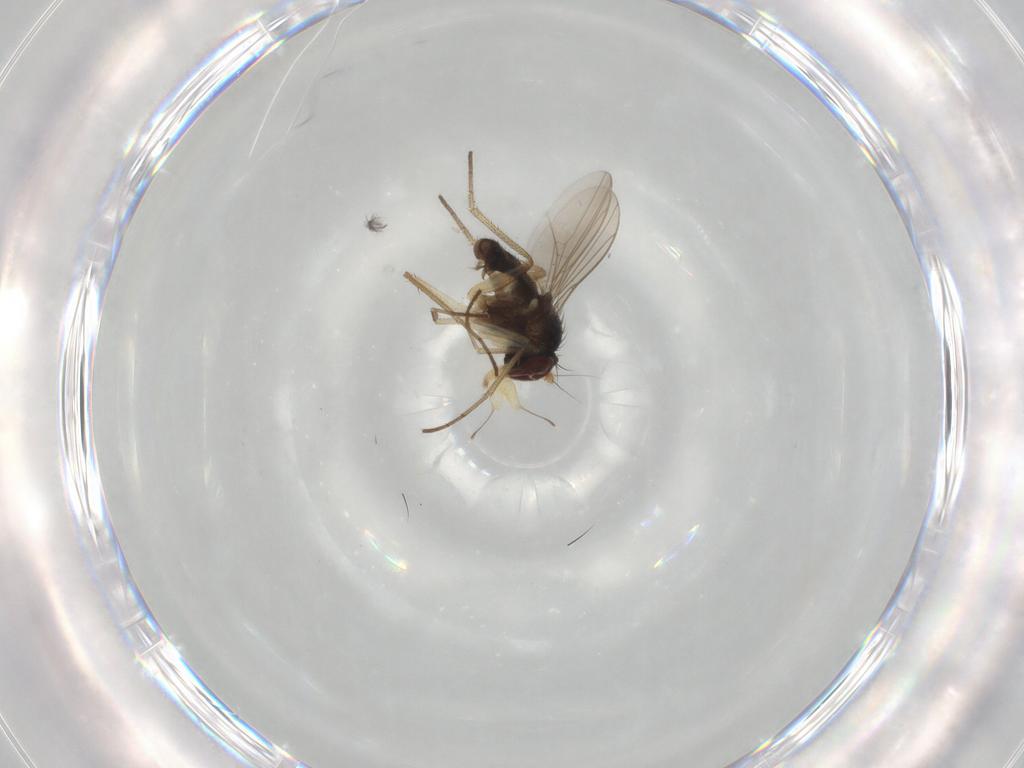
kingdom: Animalia
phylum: Arthropoda
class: Insecta
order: Diptera
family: Dolichopodidae
